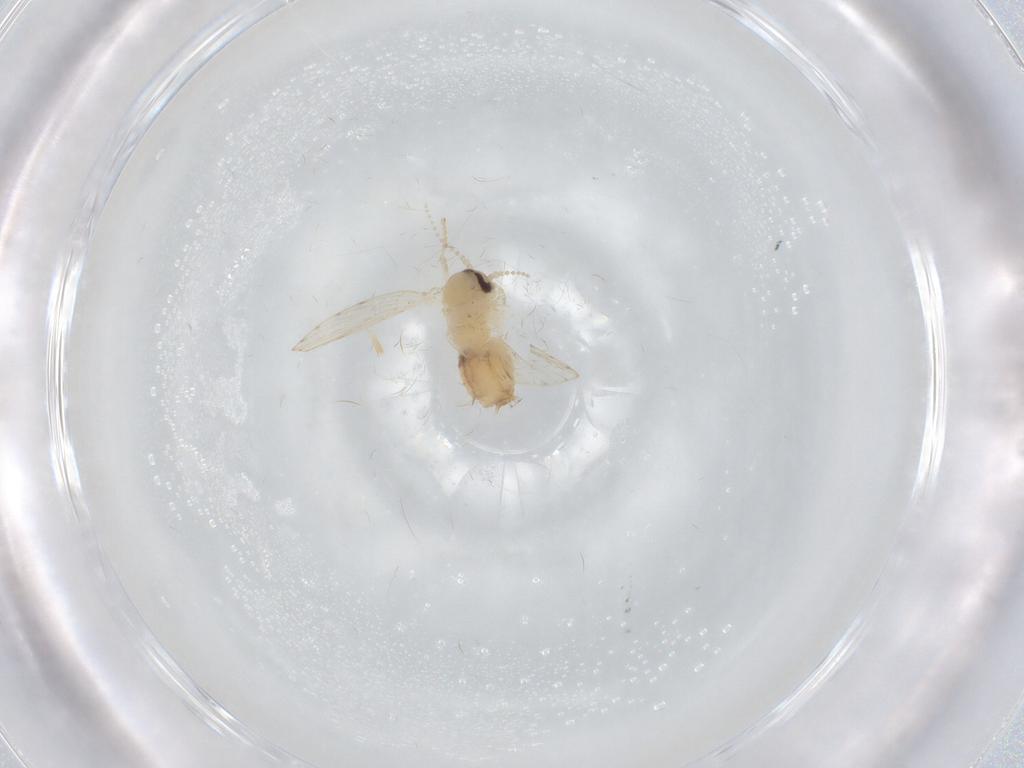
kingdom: Animalia
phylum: Arthropoda
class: Insecta
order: Diptera
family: Psychodidae
